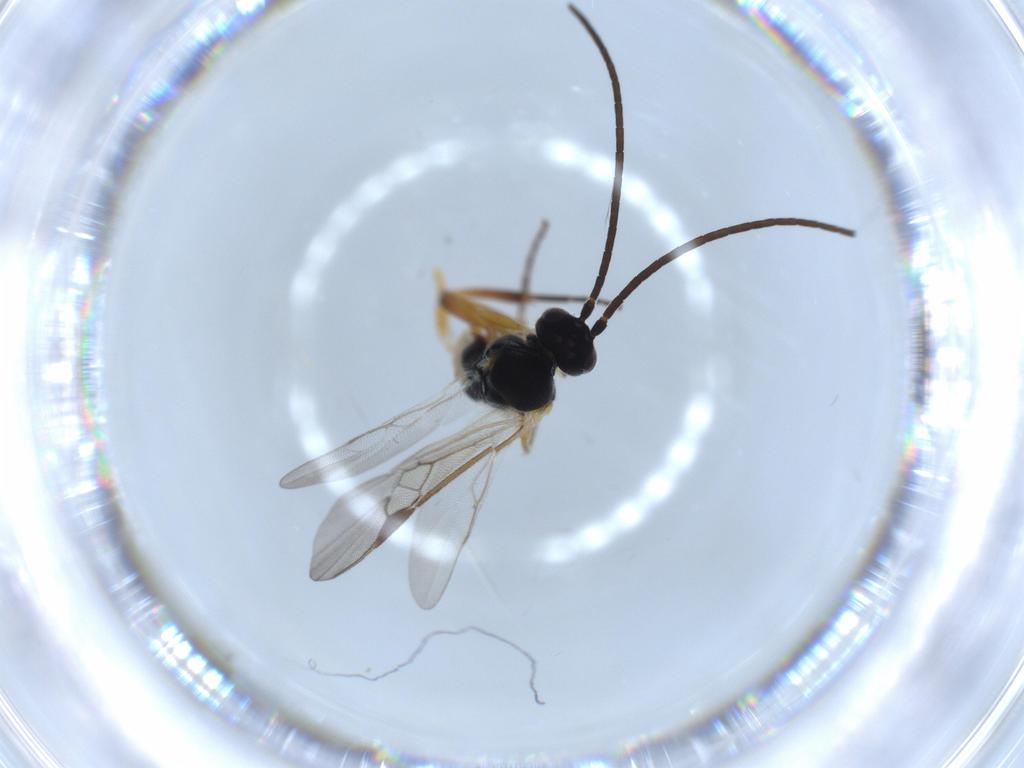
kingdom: Animalia
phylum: Arthropoda
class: Insecta
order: Hymenoptera
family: Braconidae
